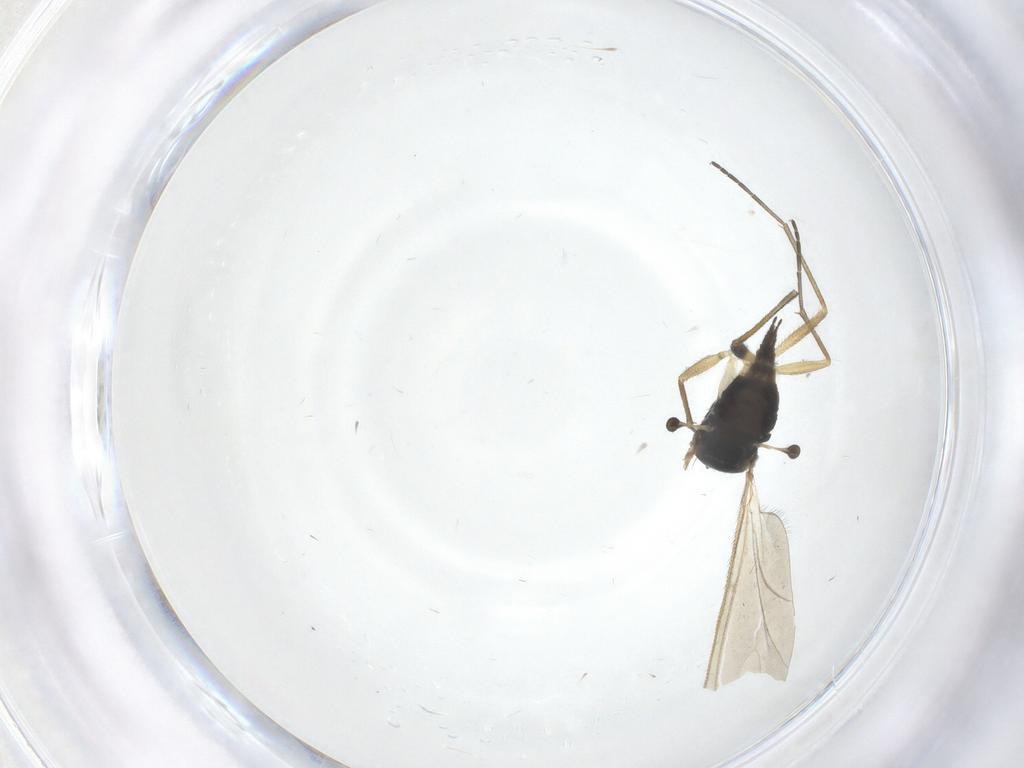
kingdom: Animalia
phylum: Arthropoda
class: Insecta
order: Diptera
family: Sciaridae
